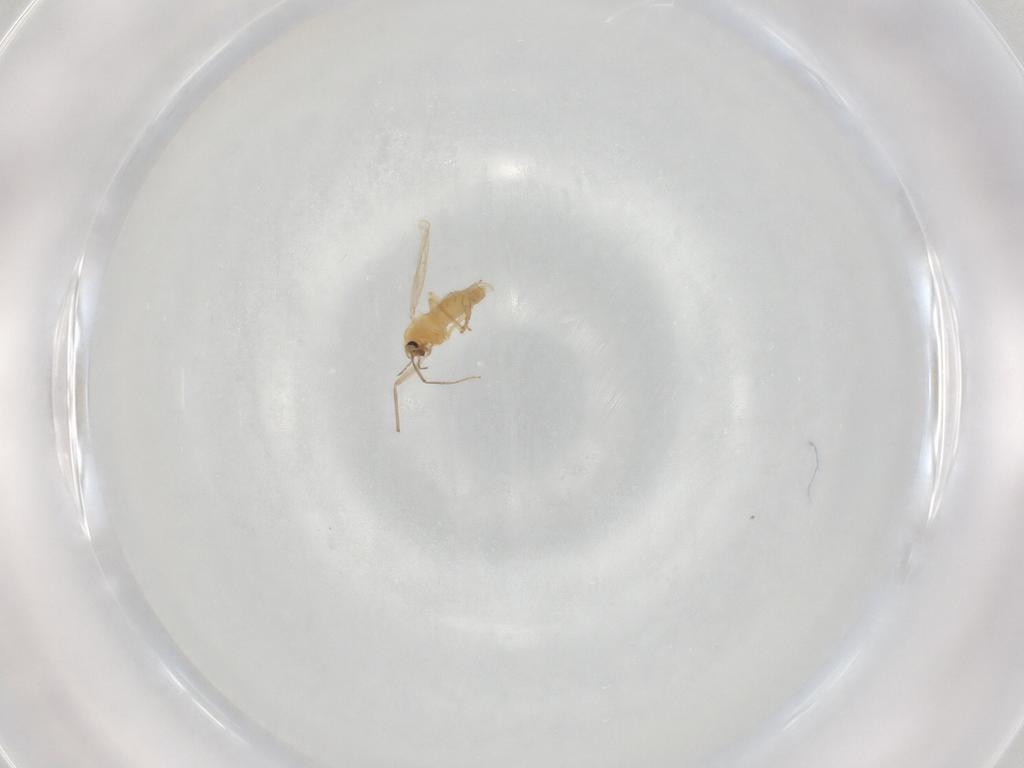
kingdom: Animalia
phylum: Arthropoda
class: Insecta
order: Diptera
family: Chironomidae
